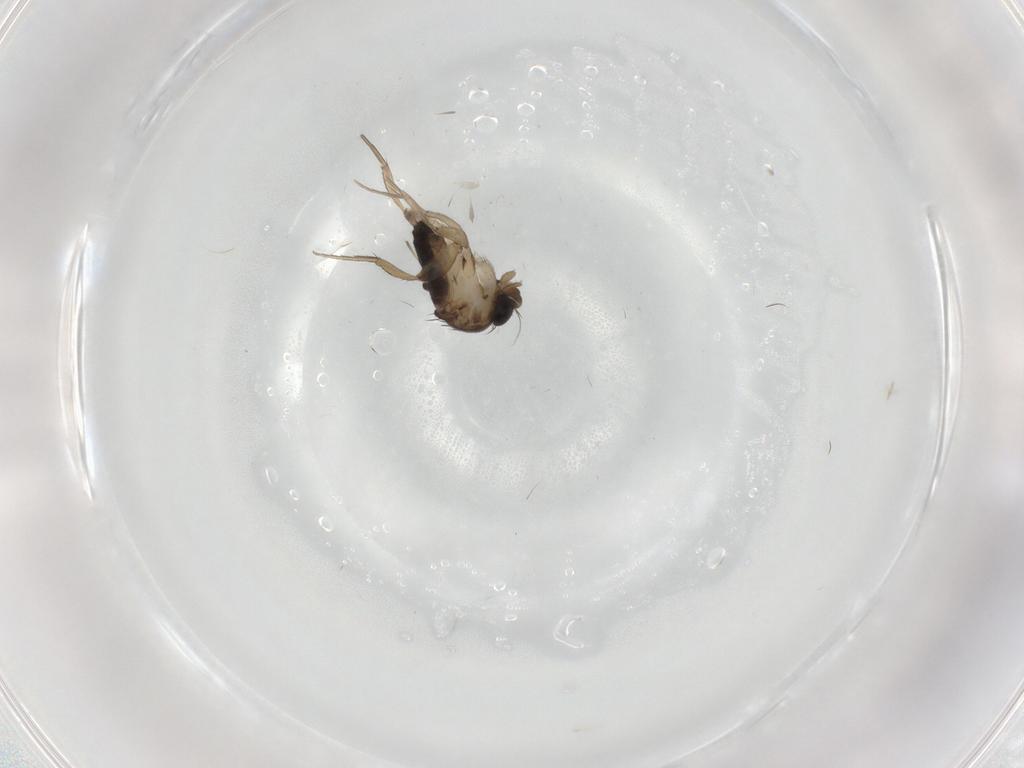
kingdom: Animalia
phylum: Arthropoda
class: Insecta
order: Diptera
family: Phoridae
